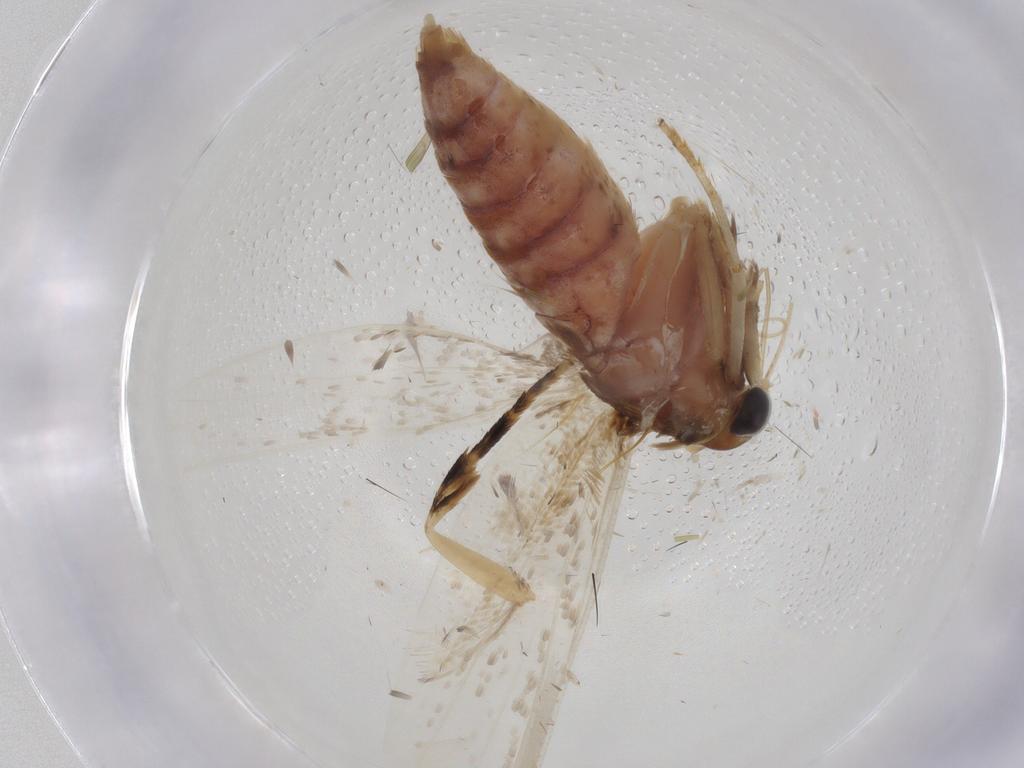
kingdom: Animalia
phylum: Arthropoda
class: Insecta
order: Lepidoptera
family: Blastobasidae
